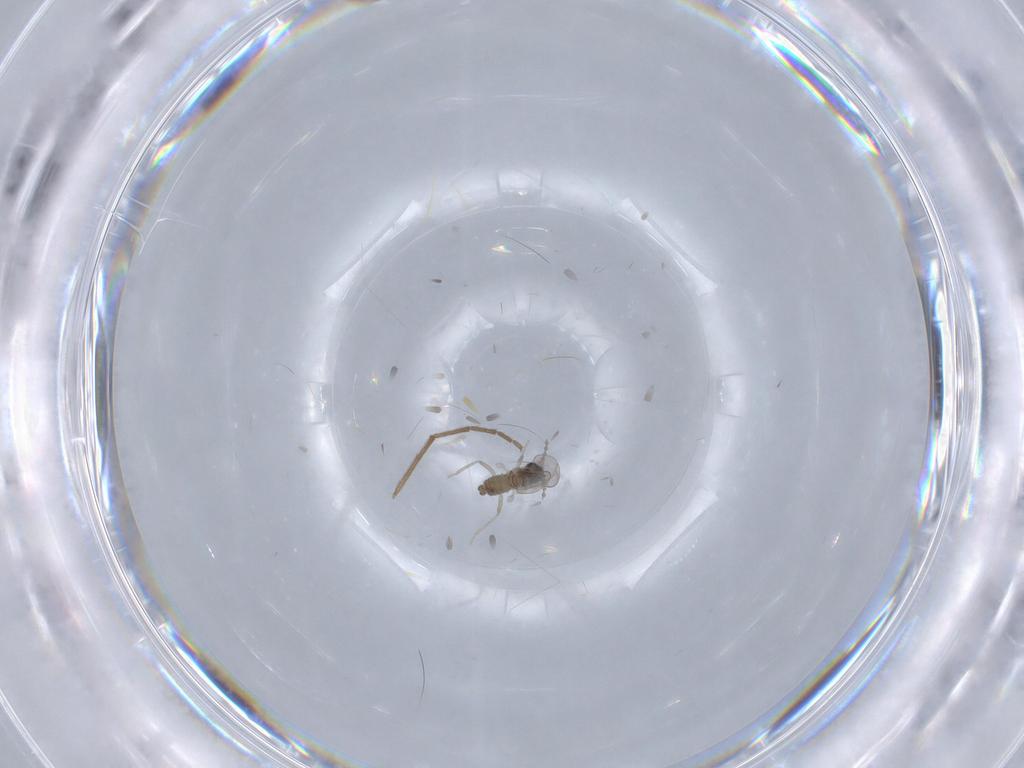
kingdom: Animalia
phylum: Arthropoda
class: Insecta
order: Diptera
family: Cecidomyiidae
